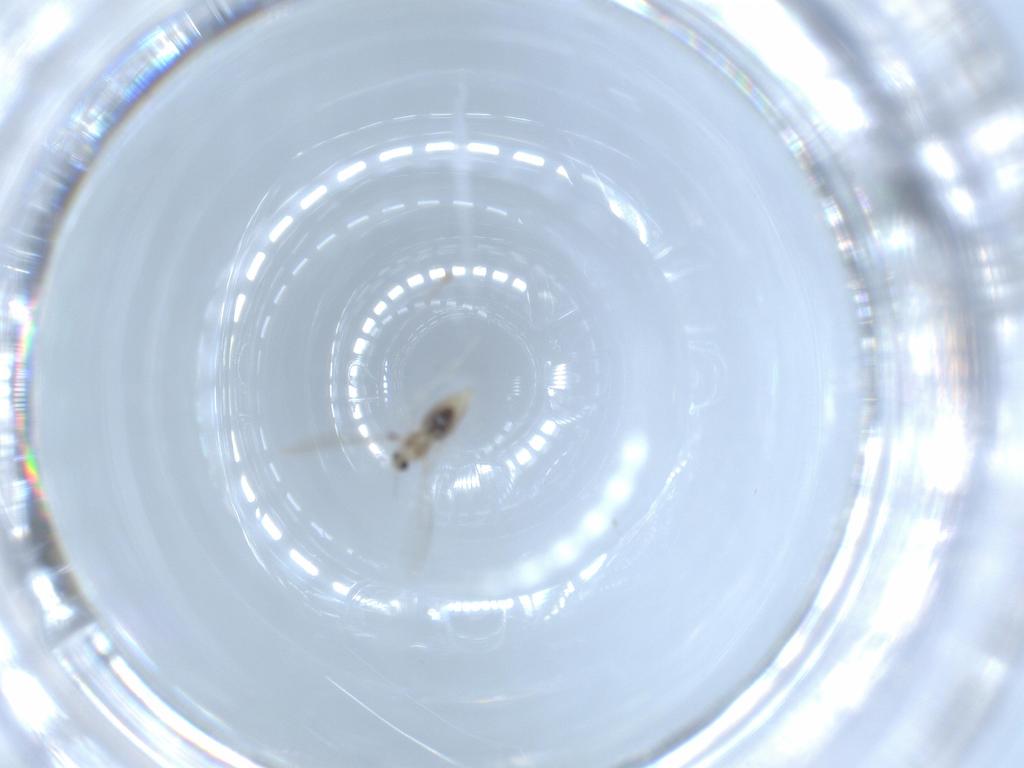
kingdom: Animalia
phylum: Arthropoda
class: Insecta
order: Diptera
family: Cecidomyiidae
